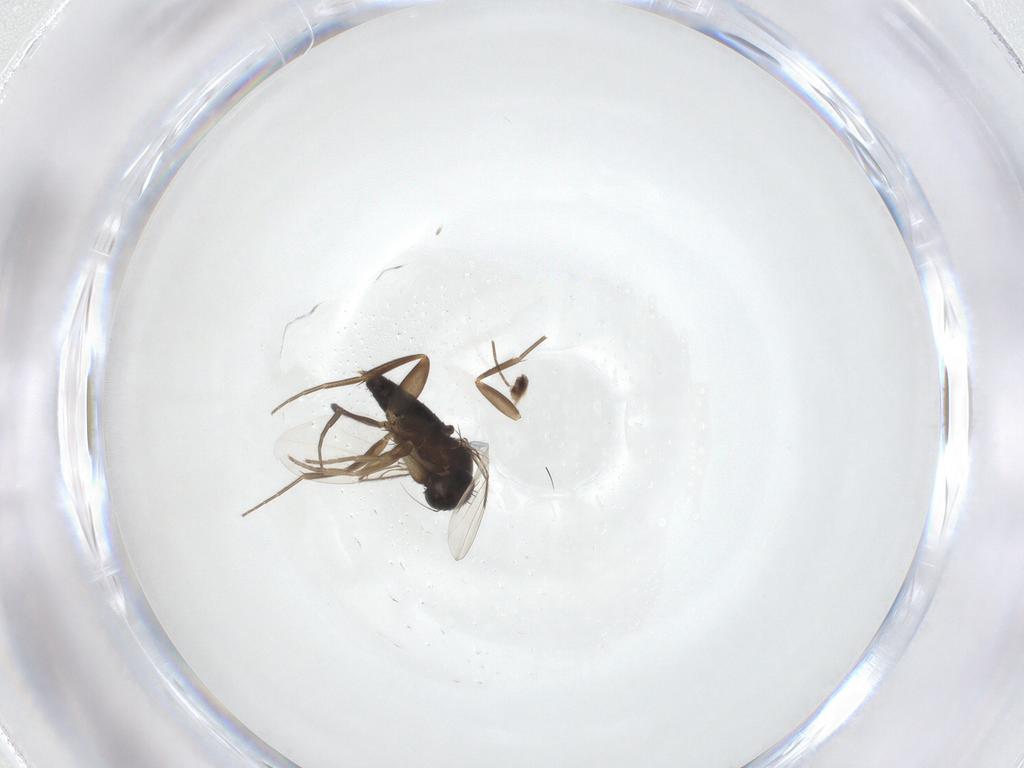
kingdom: Animalia
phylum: Arthropoda
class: Insecta
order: Diptera
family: Phoridae
